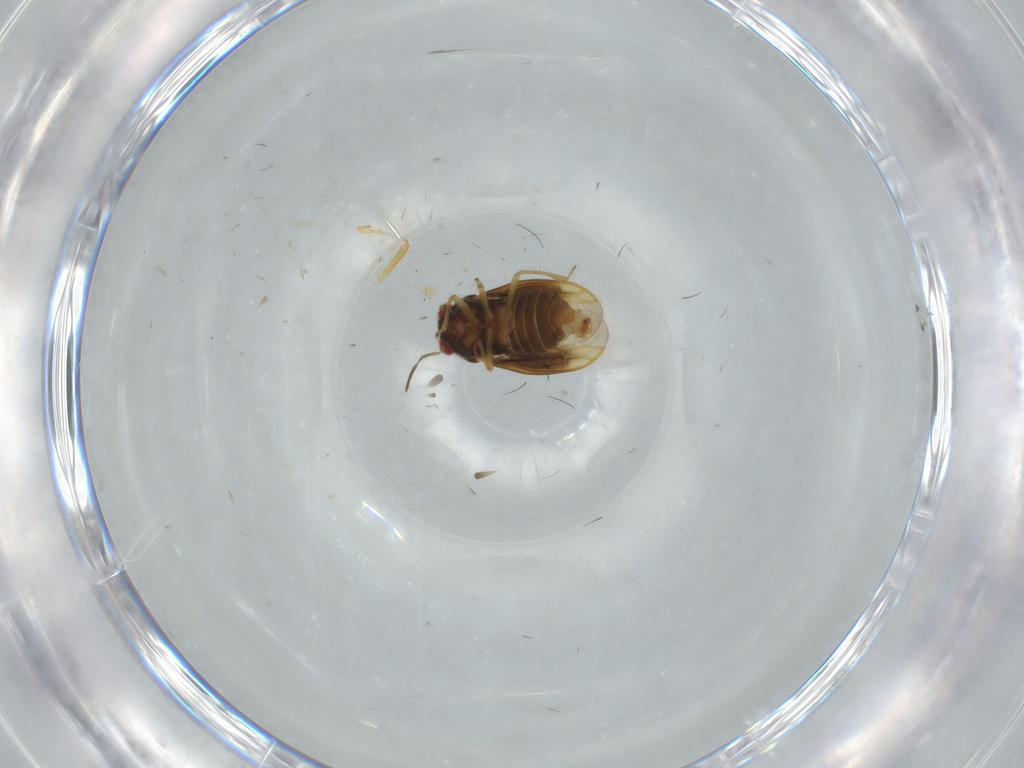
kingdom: Animalia
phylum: Arthropoda
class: Insecta
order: Hemiptera
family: Schizopteridae
